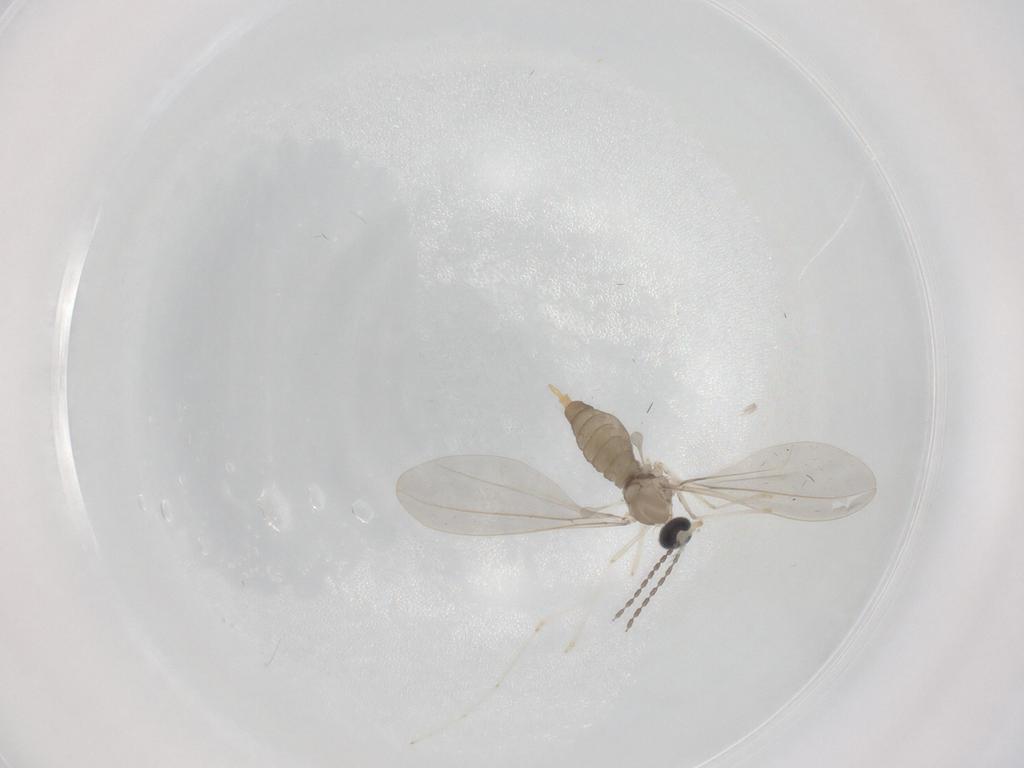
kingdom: Animalia
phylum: Arthropoda
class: Insecta
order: Diptera
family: Cecidomyiidae
